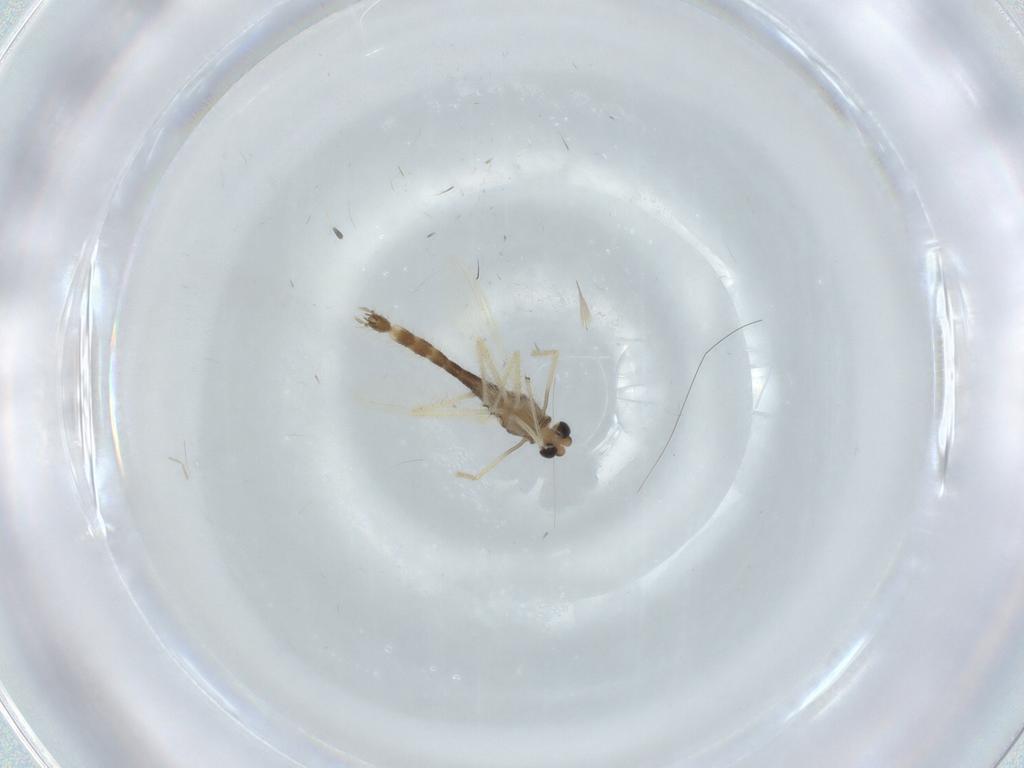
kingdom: Animalia
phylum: Arthropoda
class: Insecta
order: Diptera
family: Chironomidae
